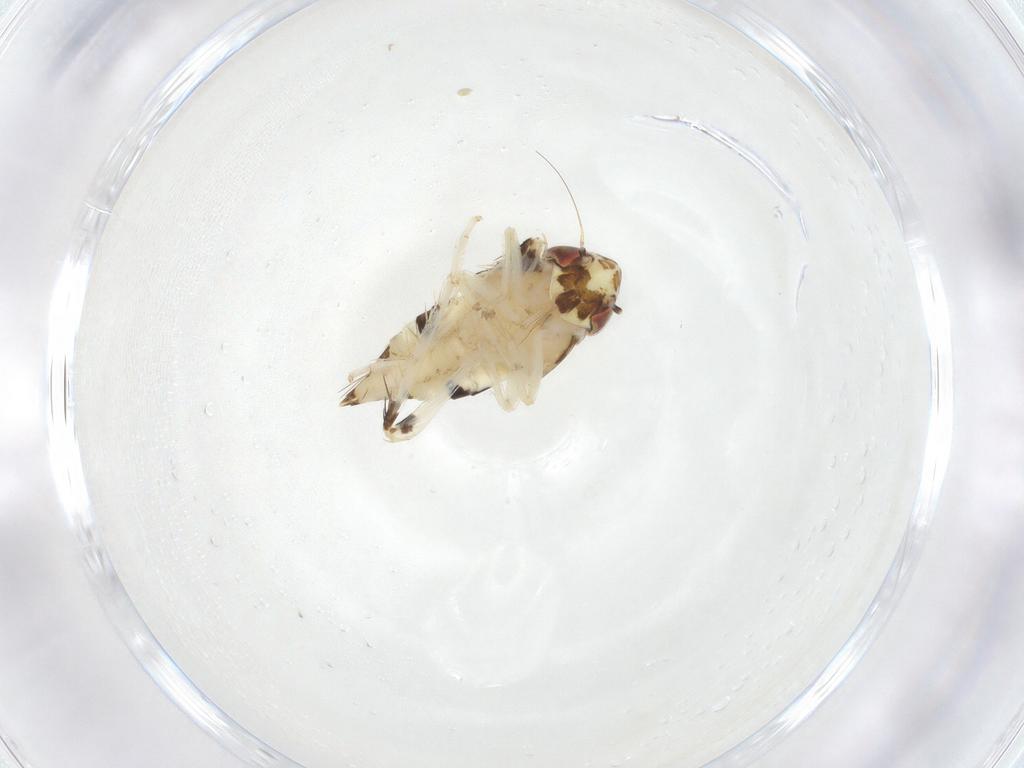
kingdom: Animalia
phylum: Arthropoda
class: Insecta
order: Hemiptera
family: Cicadellidae
